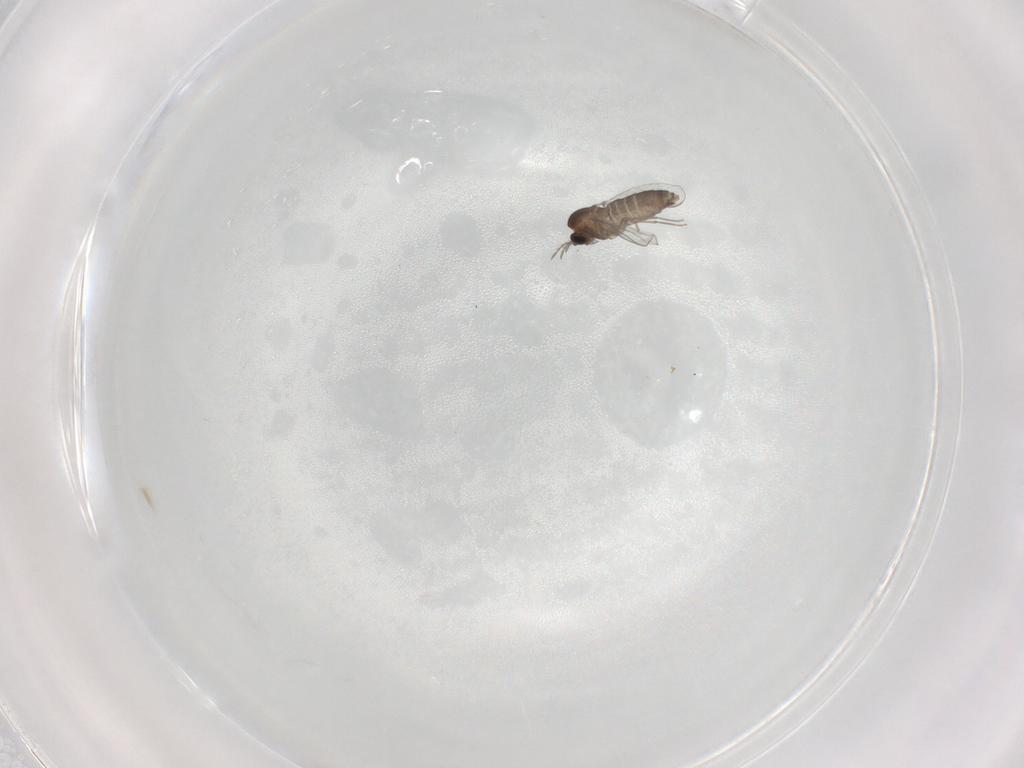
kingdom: Animalia
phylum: Arthropoda
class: Insecta
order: Diptera
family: Chironomidae
